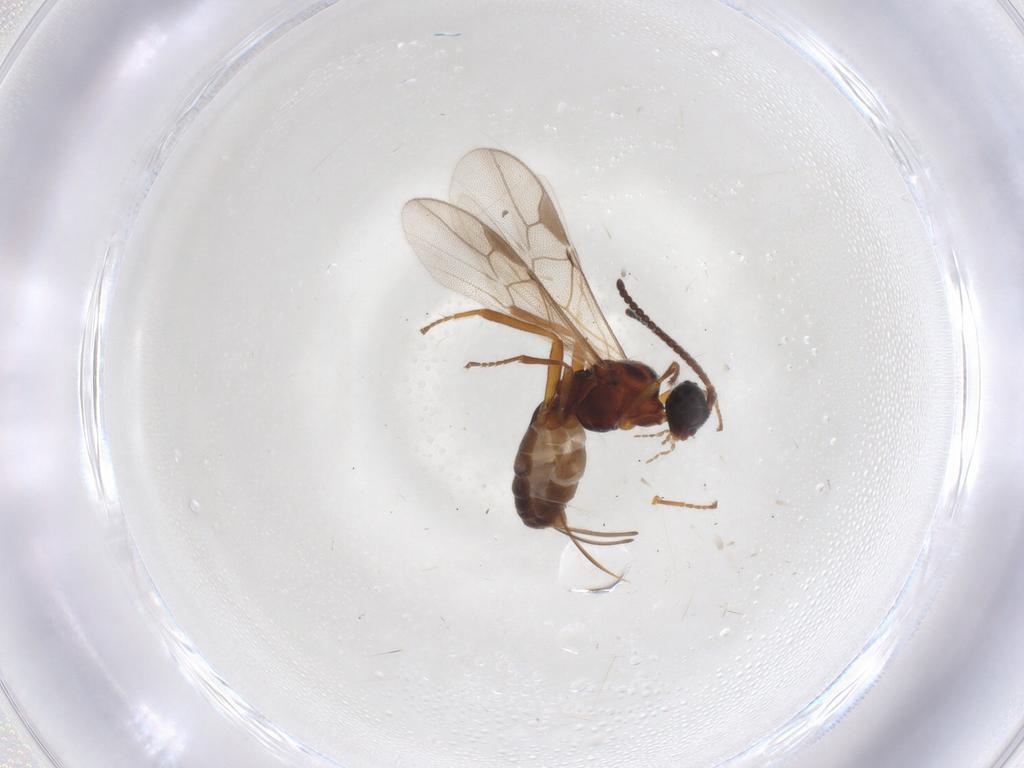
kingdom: Animalia
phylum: Arthropoda
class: Insecta
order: Hymenoptera
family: Braconidae
